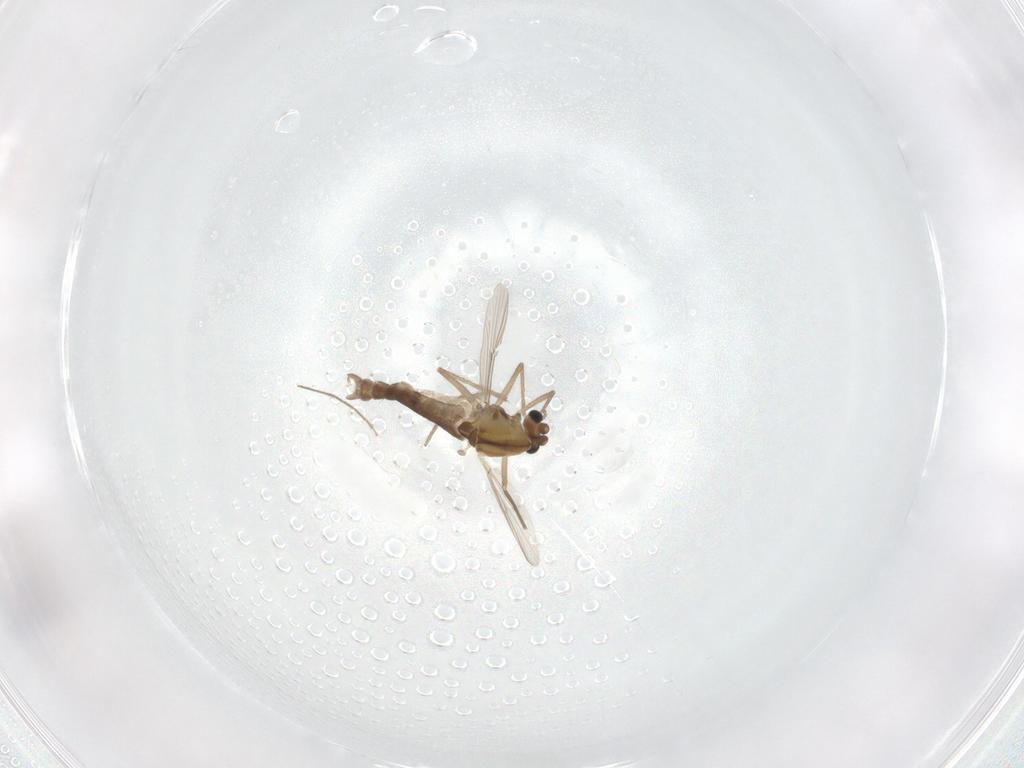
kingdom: Animalia
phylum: Arthropoda
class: Insecta
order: Diptera
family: Chironomidae
